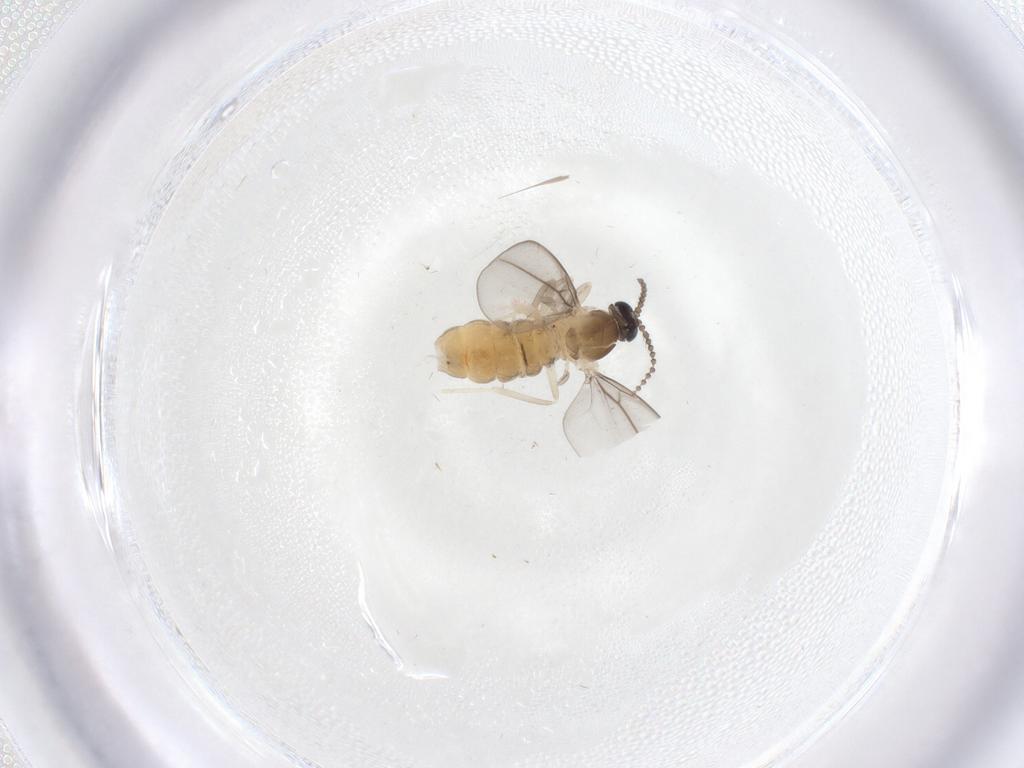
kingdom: Animalia
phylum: Arthropoda
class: Insecta
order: Diptera
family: Cecidomyiidae
